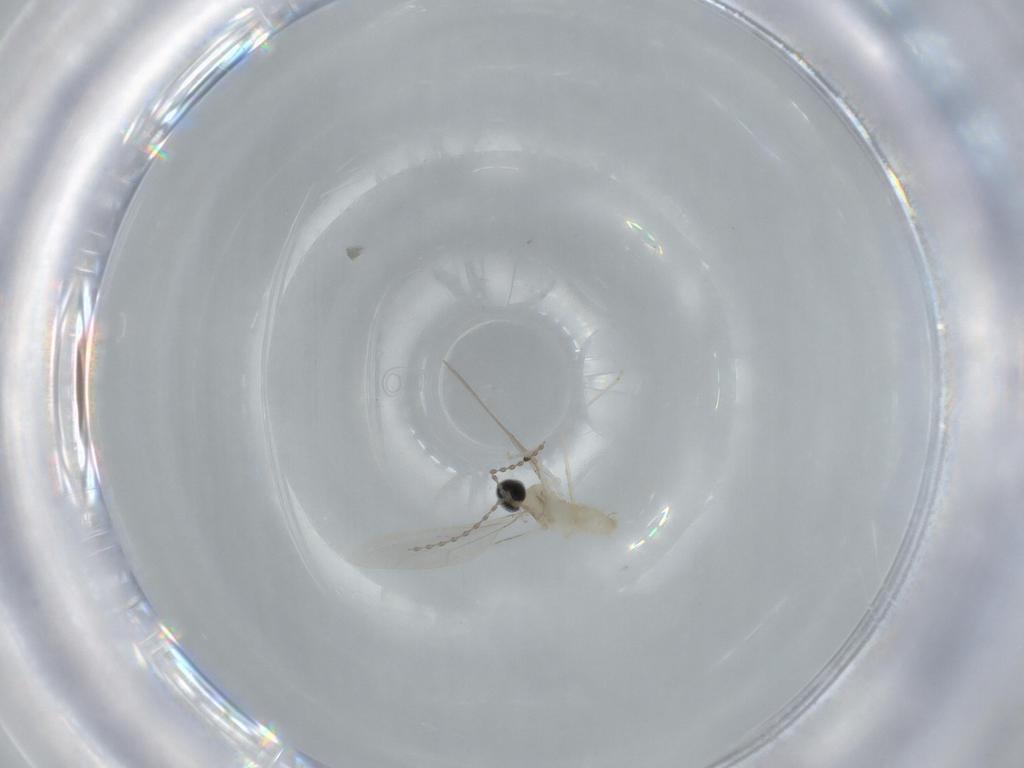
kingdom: Animalia
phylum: Arthropoda
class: Insecta
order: Diptera
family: Cecidomyiidae
